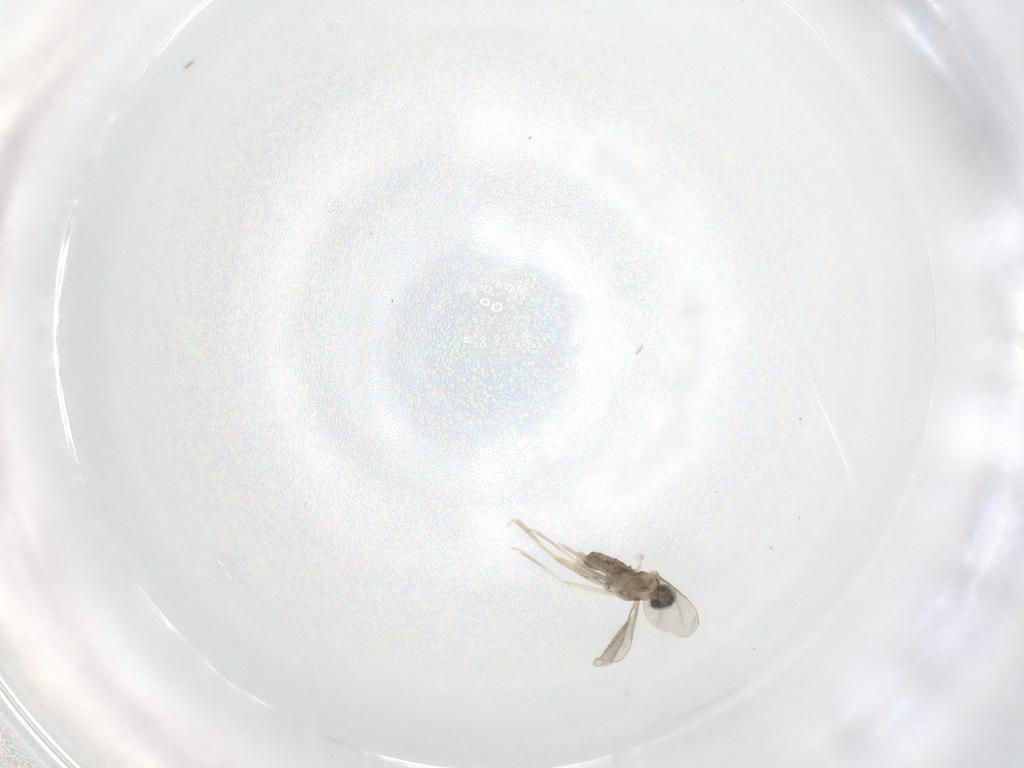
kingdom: Animalia
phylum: Arthropoda
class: Insecta
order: Diptera
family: Cecidomyiidae
